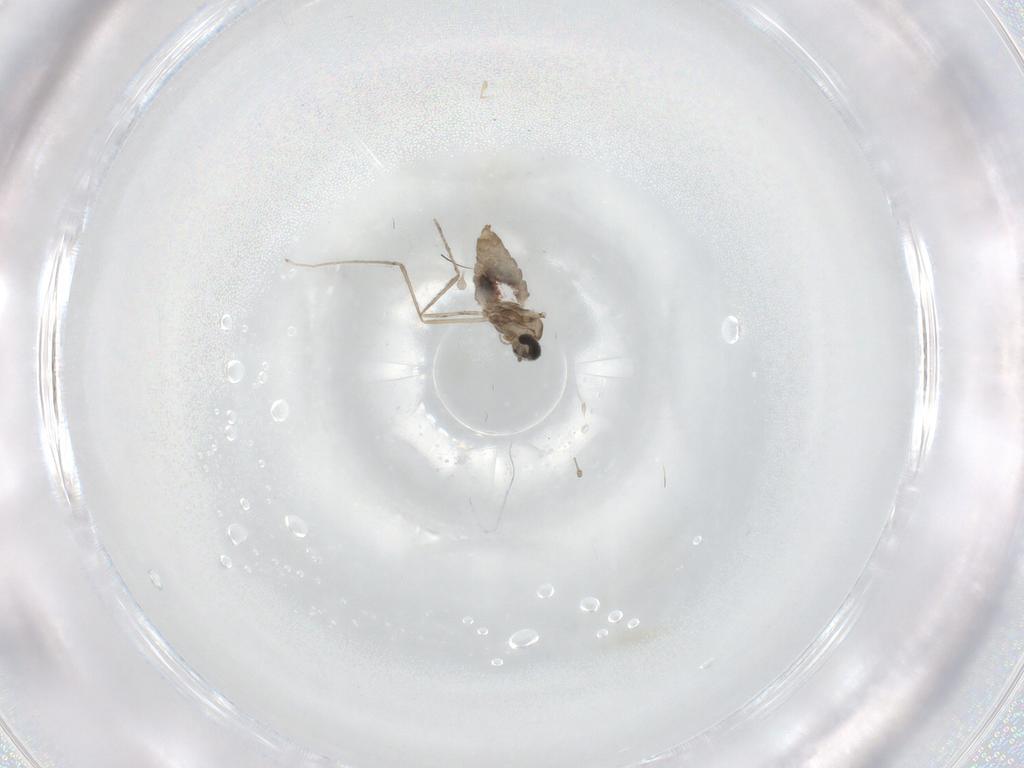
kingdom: Animalia
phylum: Arthropoda
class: Insecta
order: Diptera
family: Cecidomyiidae
